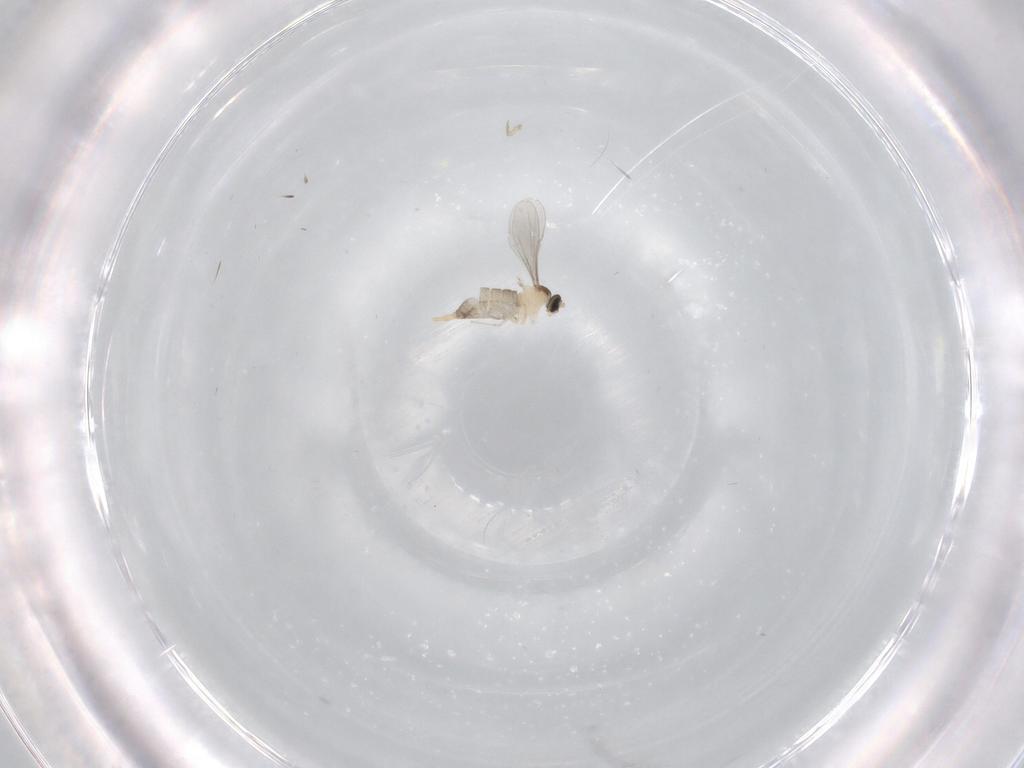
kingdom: Animalia
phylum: Arthropoda
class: Insecta
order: Diptera
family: Cecidomyiidae
